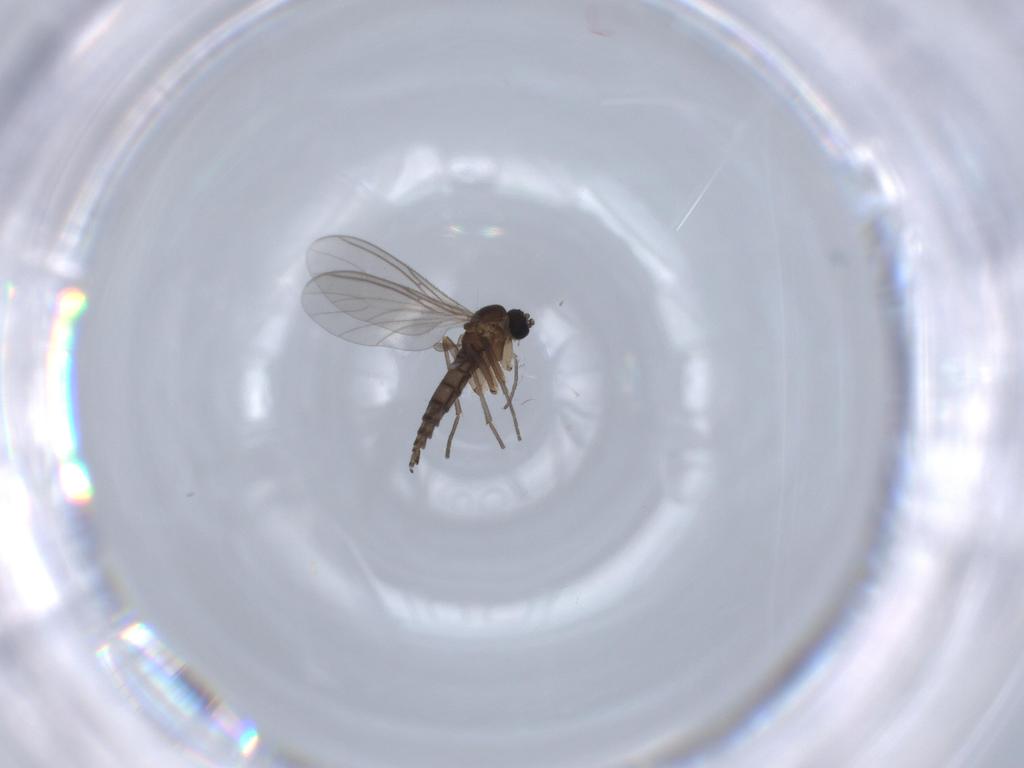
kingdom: Animalia
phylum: Arthropoda
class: Insecta
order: Diptera
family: Sciaridae
